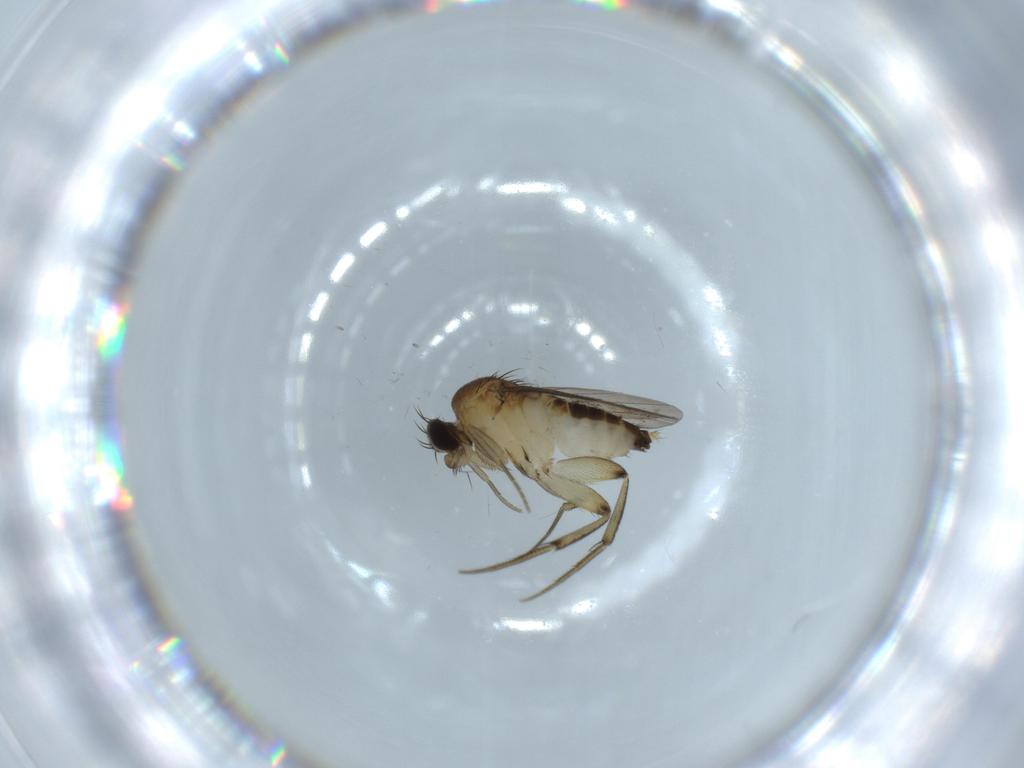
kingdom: Animalia
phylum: Arthropoda
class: Insecta
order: Diptera
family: Phoridae
